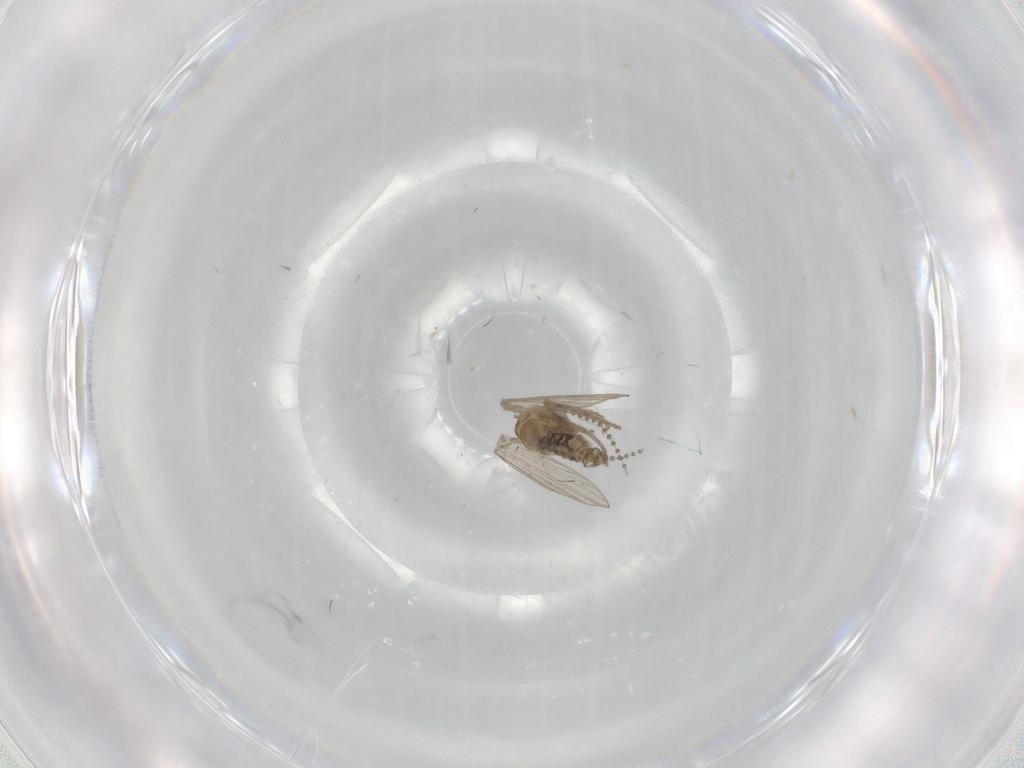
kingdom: Animalia
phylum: Arthropoda
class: Insecta
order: Diptera
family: Psychodidae
